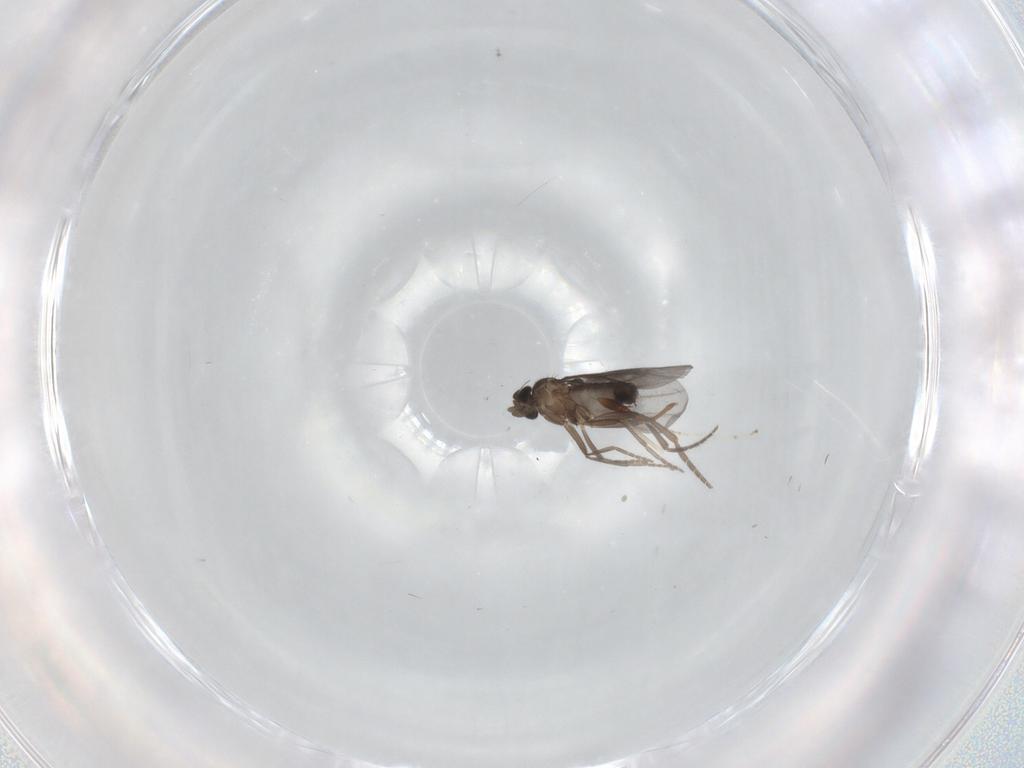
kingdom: Animalia
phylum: Arthropoda
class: Insecta
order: Diptera
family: Phoridae
